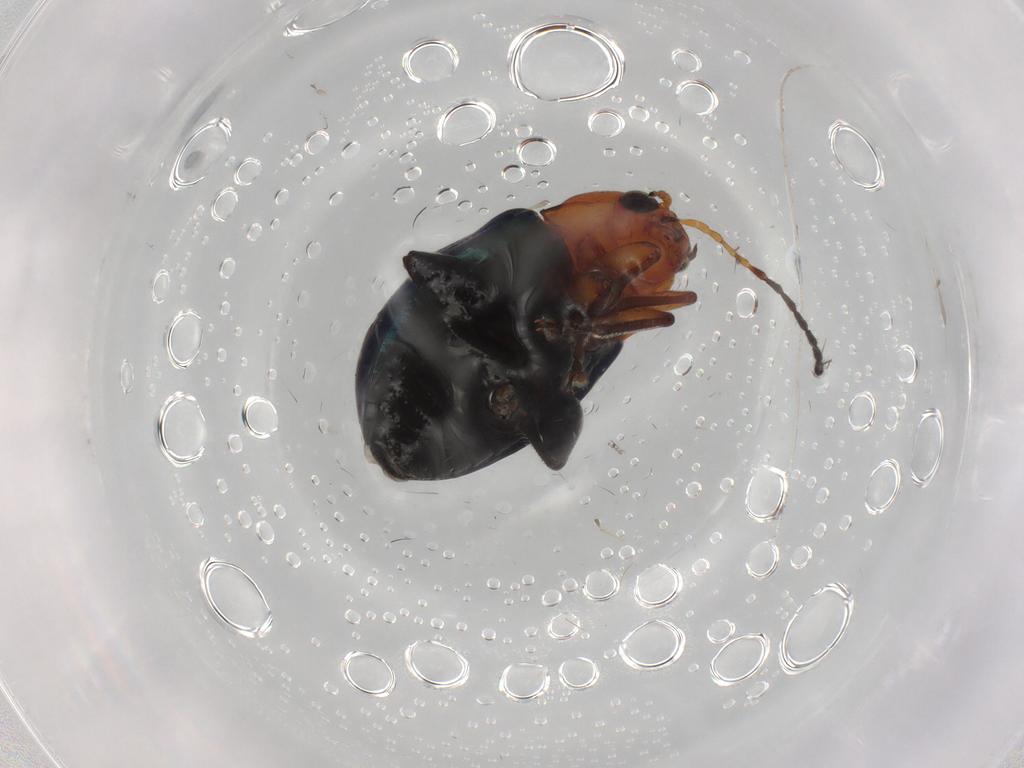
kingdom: Animalia
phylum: Arthropoda
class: Insecta
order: Coleoptera
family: Chrysomelidae
